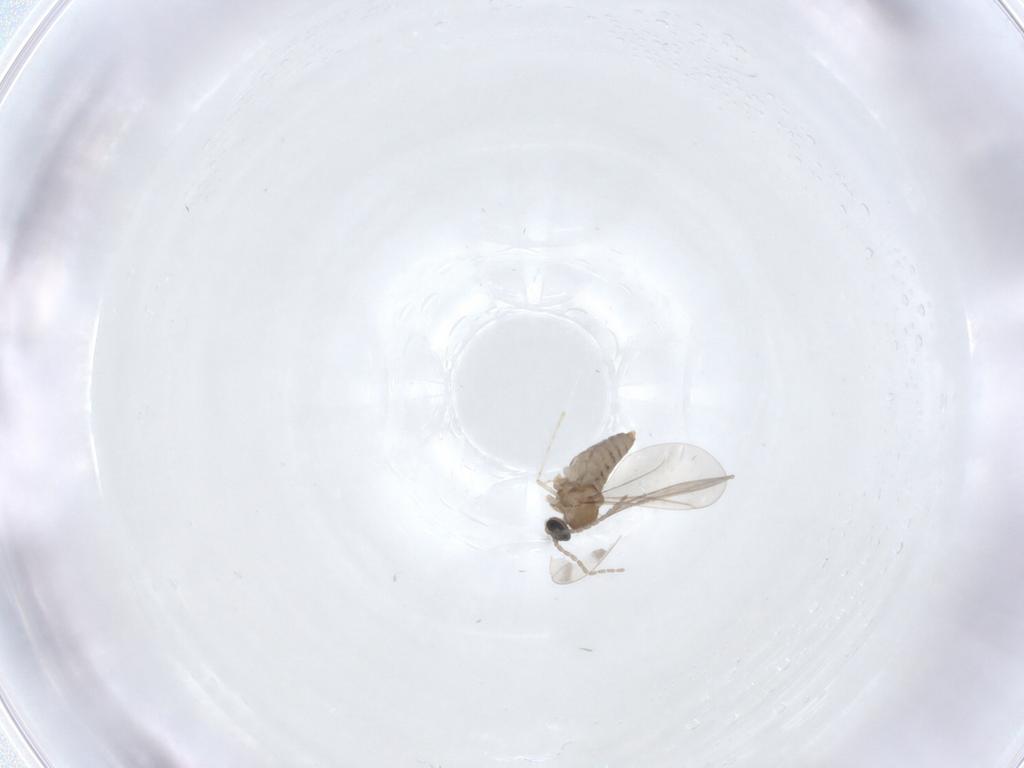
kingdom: Animalia
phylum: Arthropoda
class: Insecta
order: Diptera
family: Cecidomyiidae
